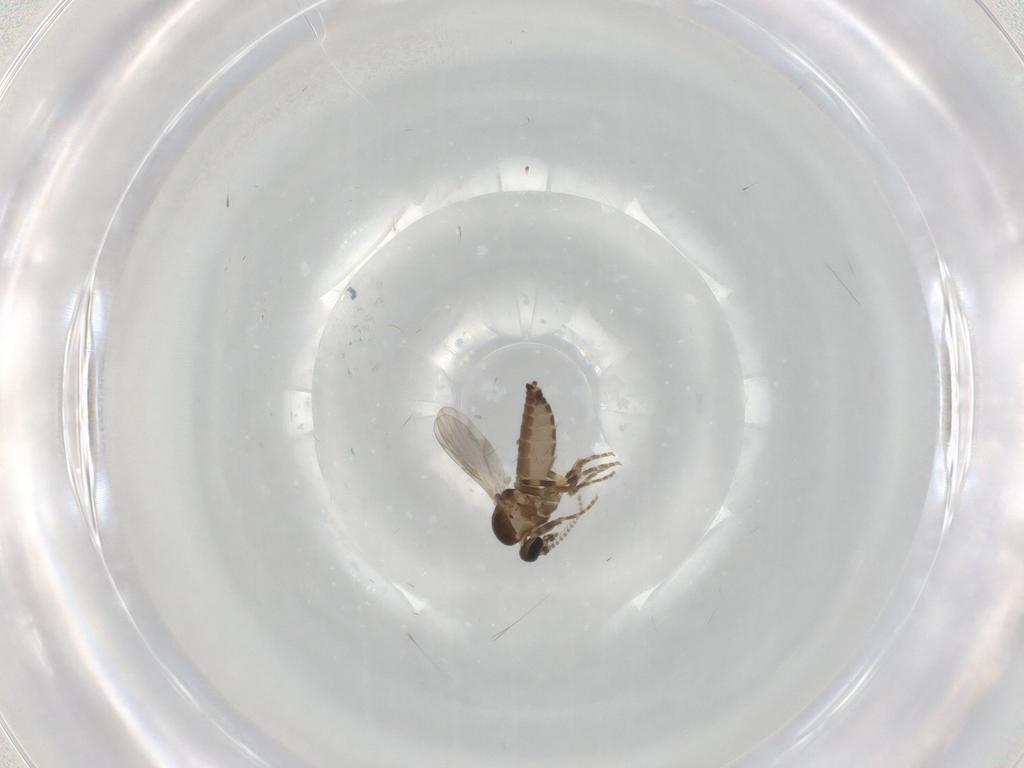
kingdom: Animalia
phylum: Arthropoda
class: Insecta
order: Diptera
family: Ceratopogonidae
